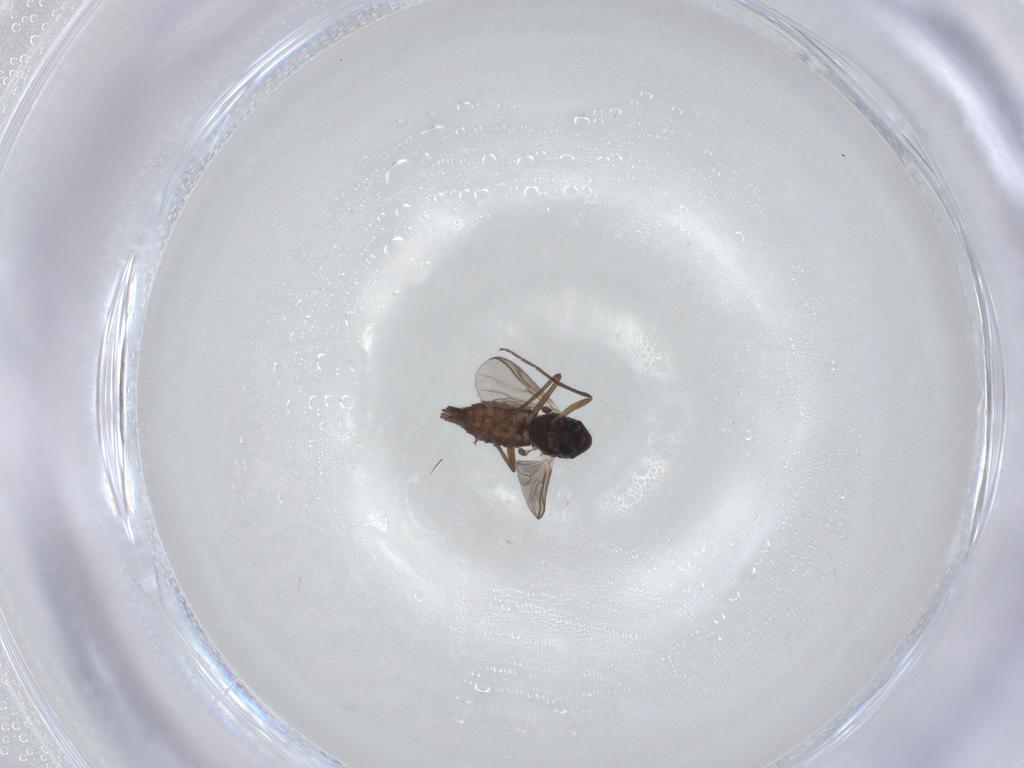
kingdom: Animalia
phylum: Arthropoda
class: Insecta
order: Diptera
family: Chironomidae
